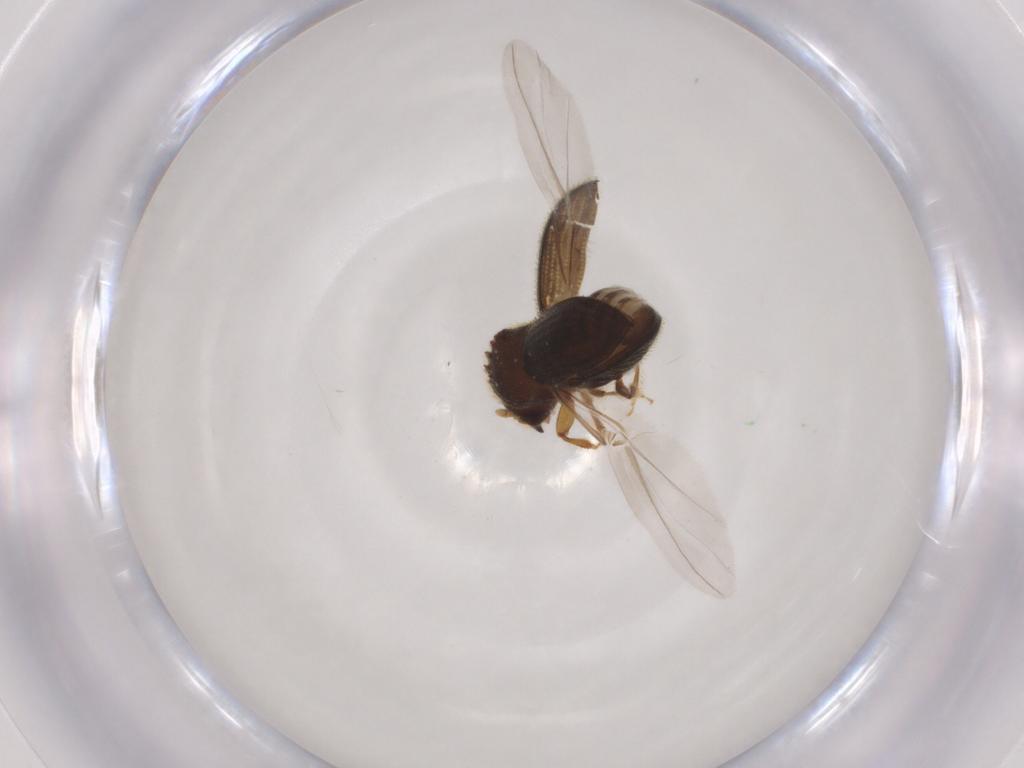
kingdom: Animalia
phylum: Arthropoda
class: Insecta
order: Coleoptera
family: Curculionidae
